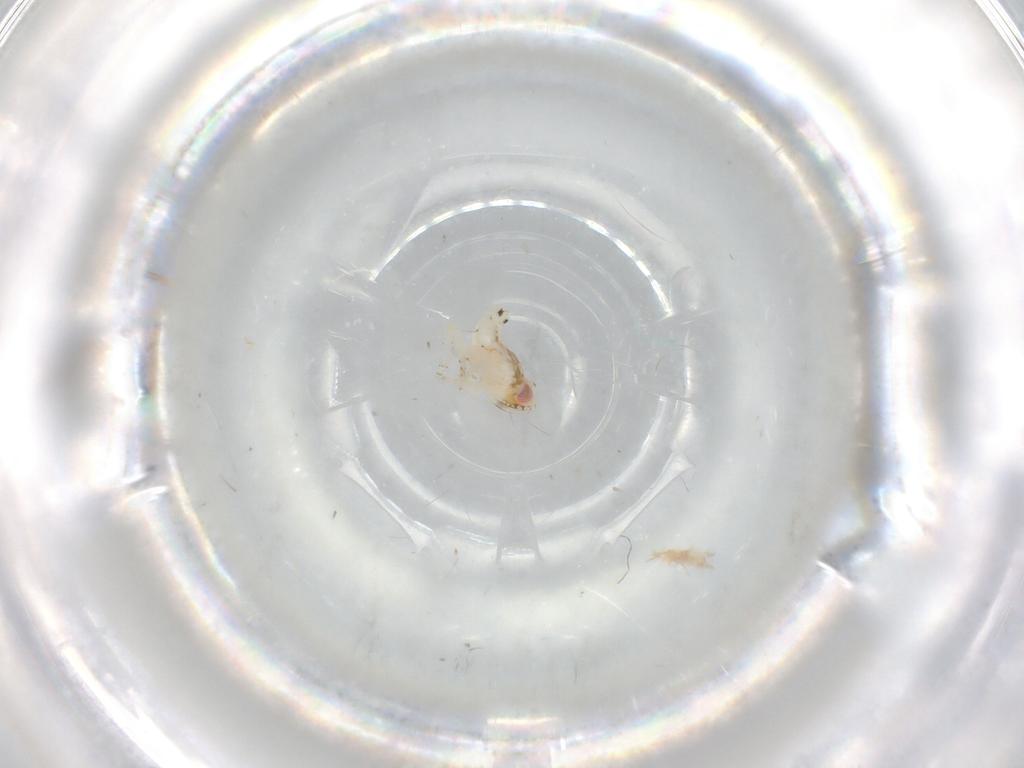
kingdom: Animalia
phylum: Arthropoda
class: Insecta
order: Hemiptera
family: Nogodinidae
